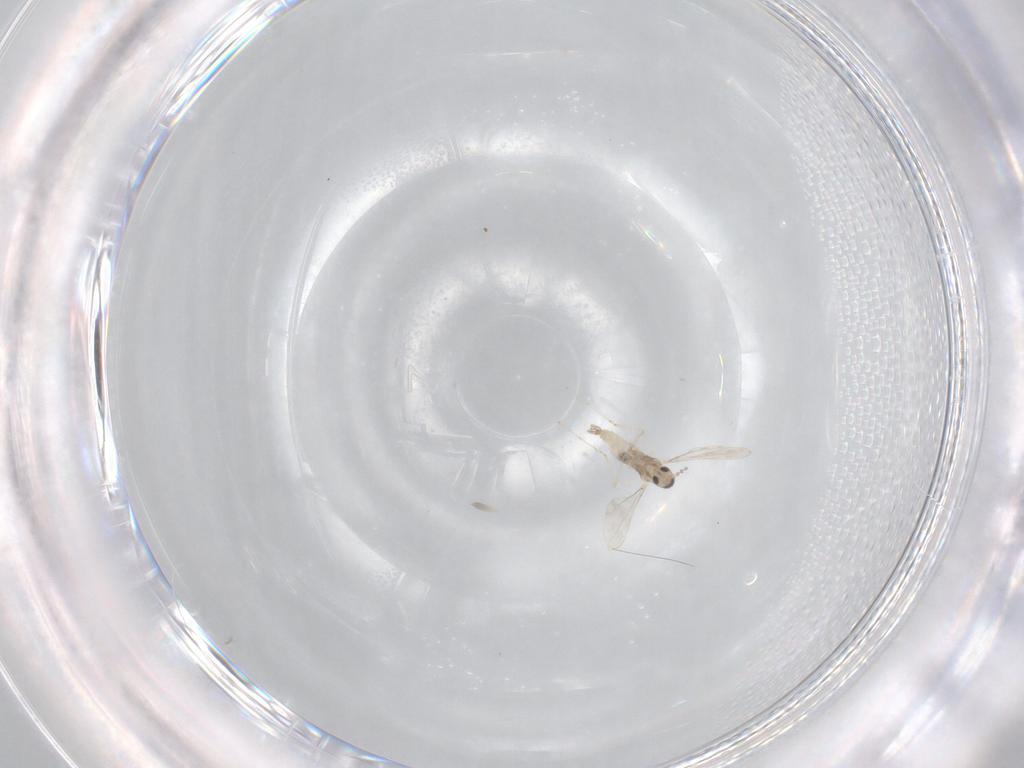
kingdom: Animalia
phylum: Arthropoda
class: Insecta
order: Diptera
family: Cecidomyiidae
